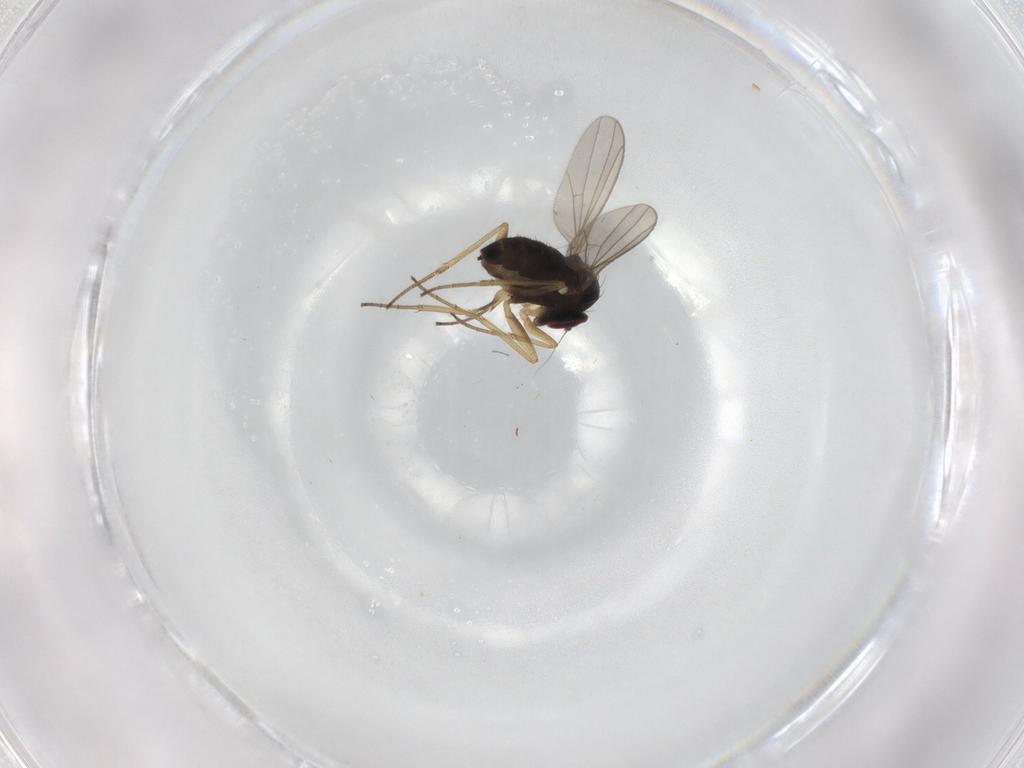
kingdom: Animalia
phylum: Arthropoda
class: Insecta
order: Diptera
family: Dolichopodidae
